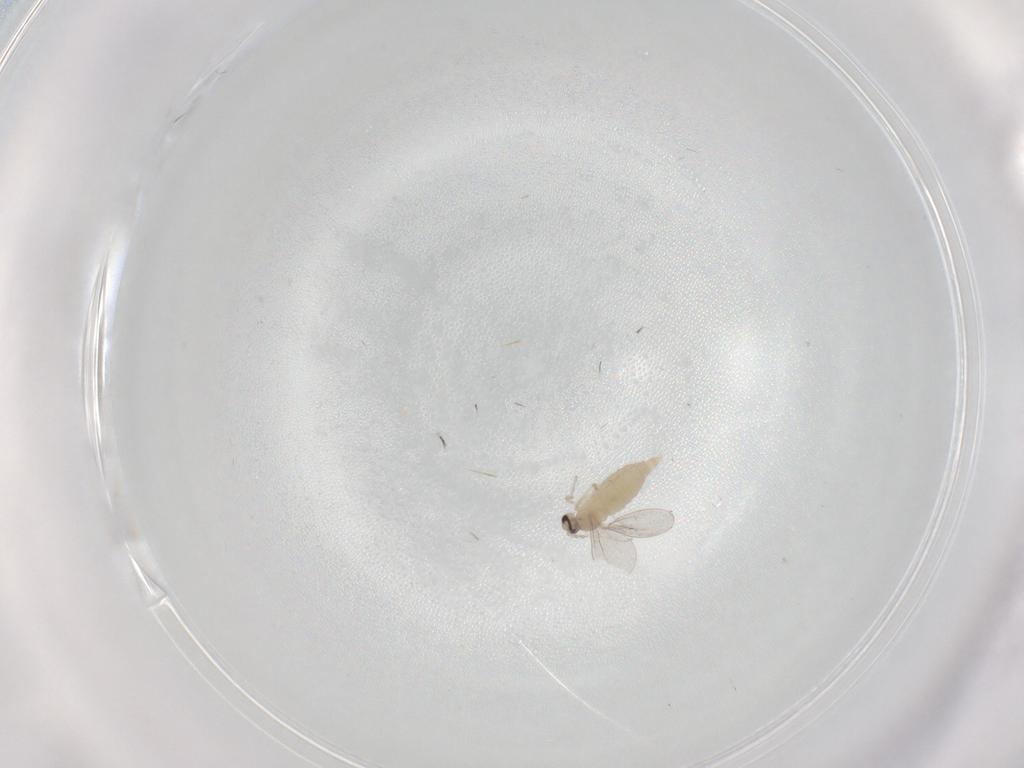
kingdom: Animalia
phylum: Arthropoda
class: Insecta
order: Diptera
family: Cecidomyiidae
